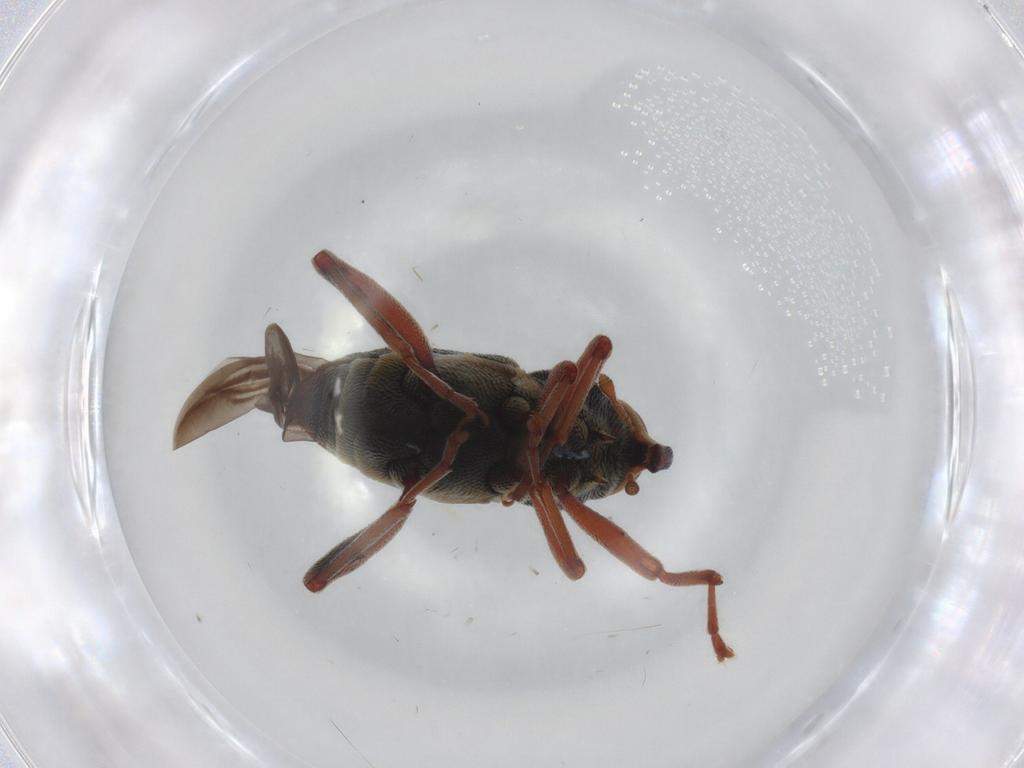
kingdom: Animalia
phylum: Arthropoda
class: Insecta
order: Coleoptera
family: Curculionidae
